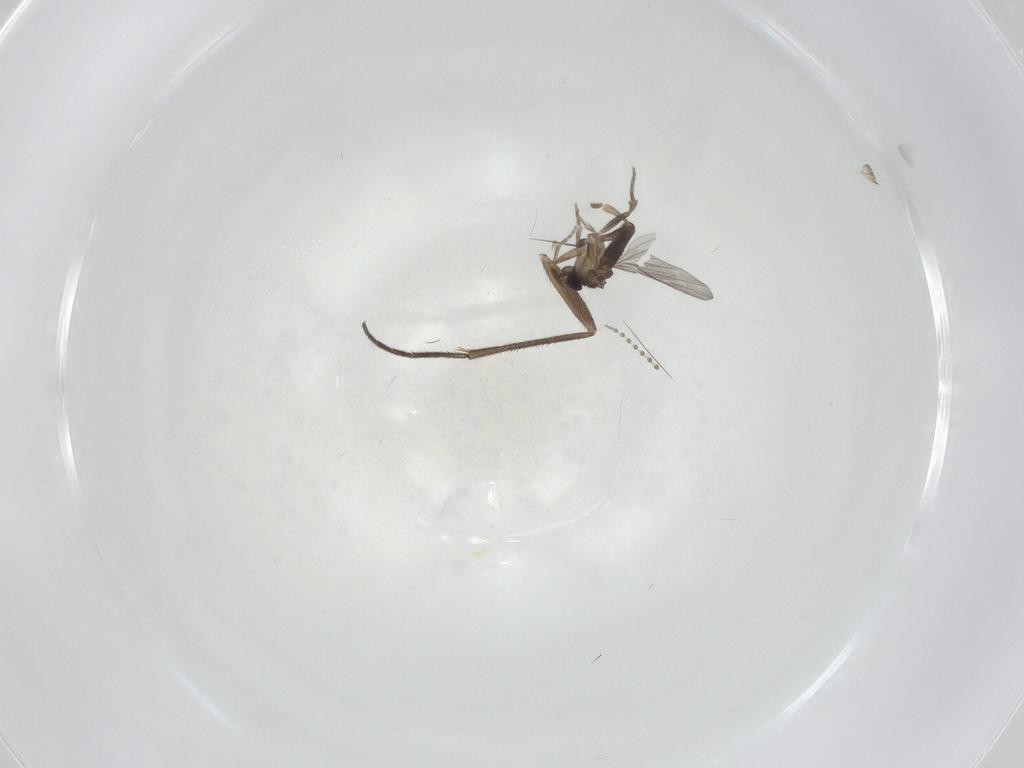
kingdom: Animalia
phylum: Arthropoda
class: Insecta
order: Diptera
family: Sciaridae
